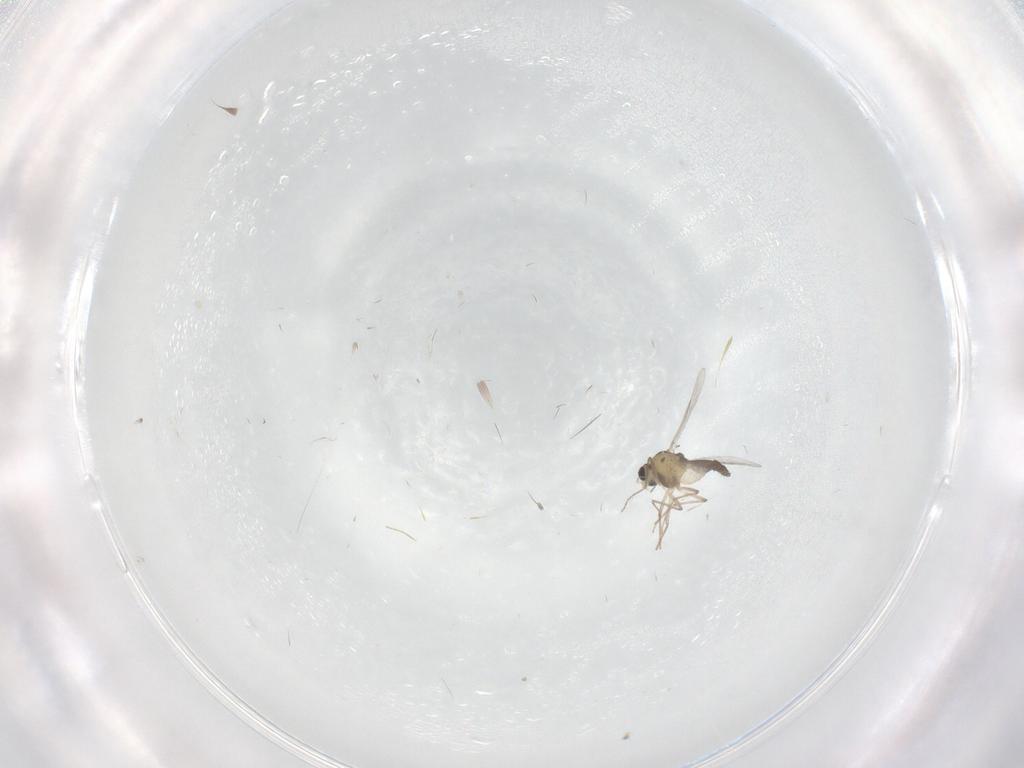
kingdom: Animalia
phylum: Arthropoda
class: Insecta
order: Diptera
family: Chironomidae
